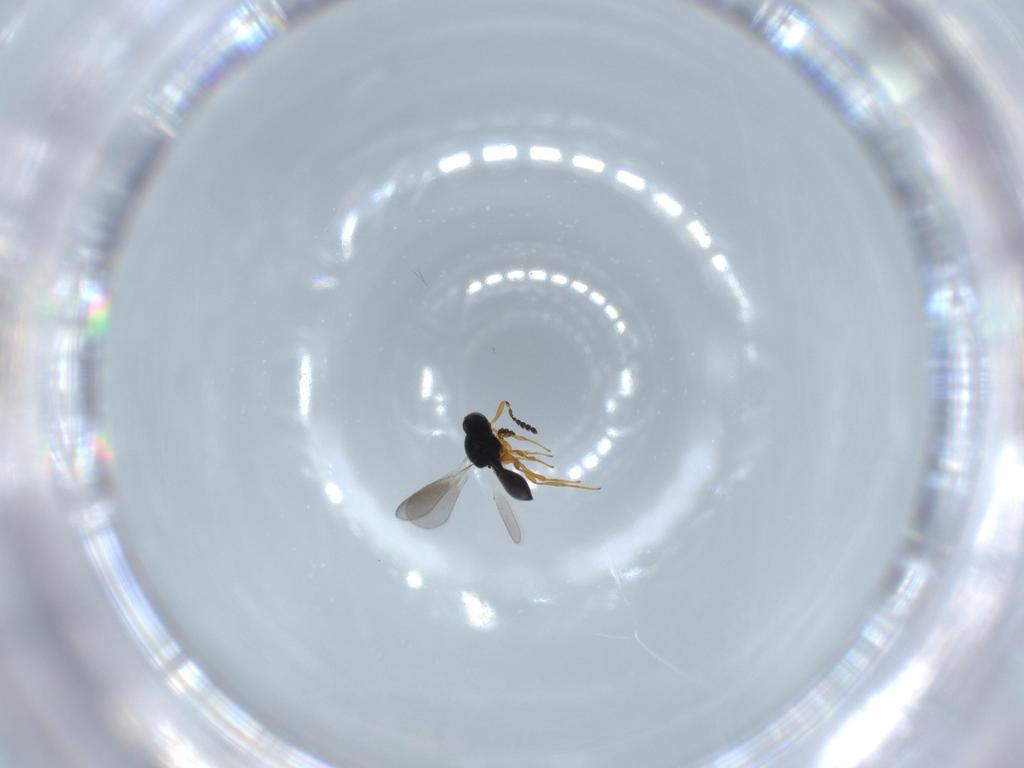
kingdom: Animalia
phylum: Arthropoda
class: Insecta
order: Hymenoptera
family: Platygastridae
